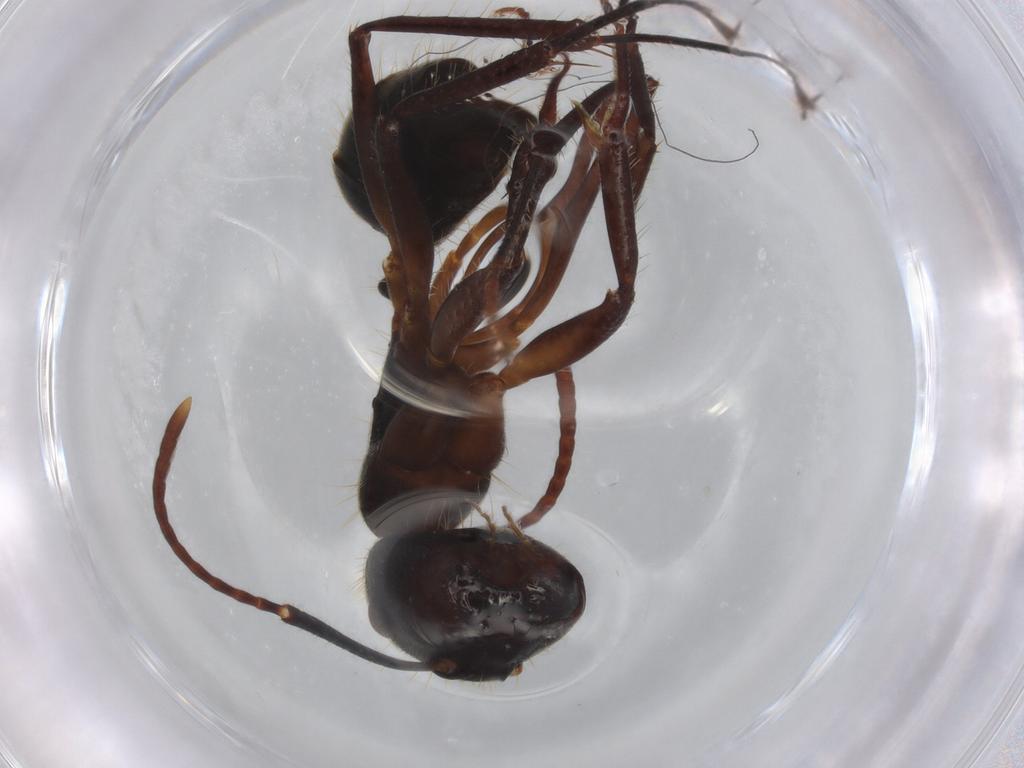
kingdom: Animalia
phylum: Arthropoda
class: Insecta
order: Hymenoptera
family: Formicidae
